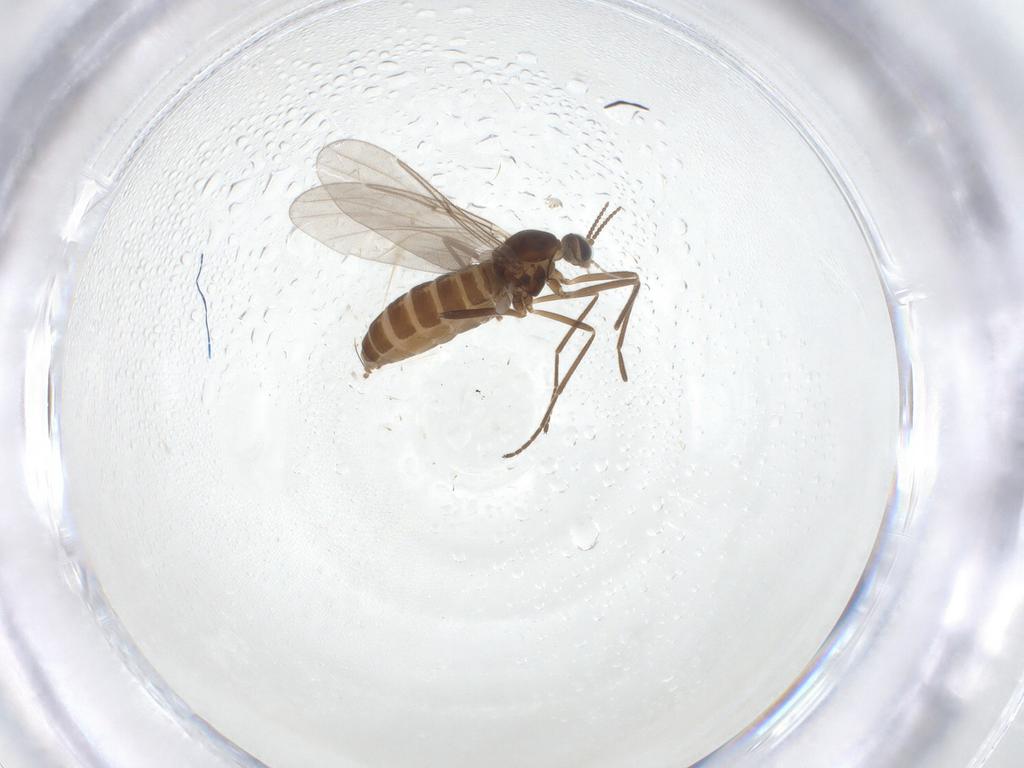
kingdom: Animalia
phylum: Arthropoda
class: Insecta
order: Diptera
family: Cecidomyiidae
